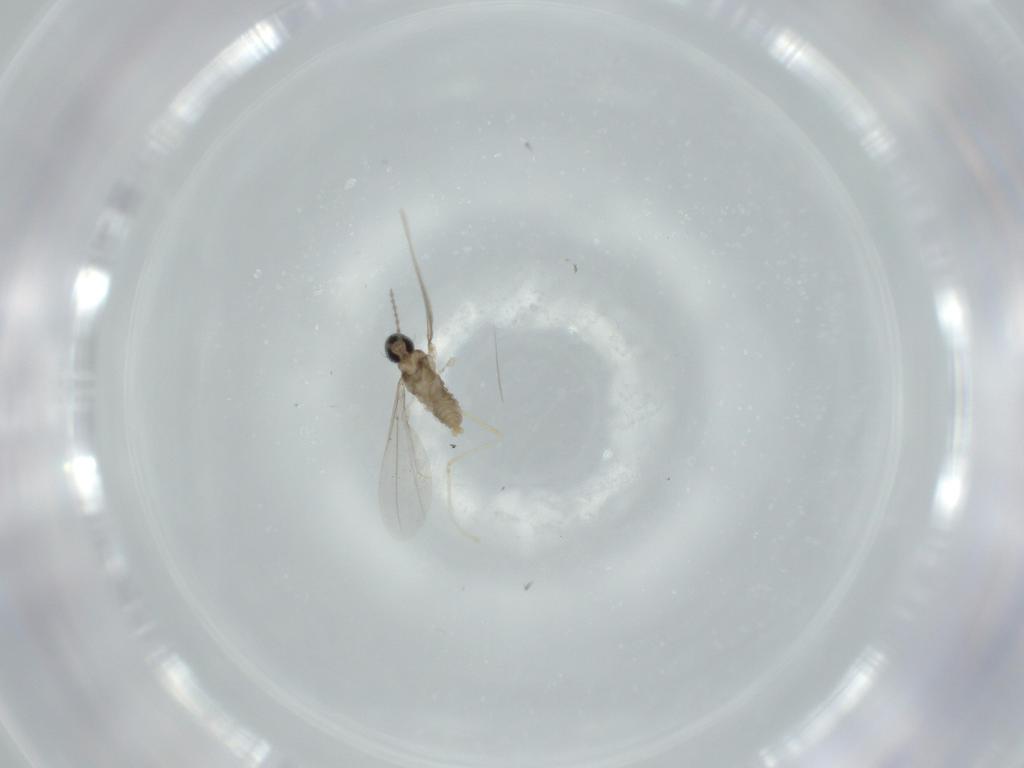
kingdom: Animalia
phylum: Arthropoda
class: Insecta
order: Diptera
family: Cecidomyiidae
